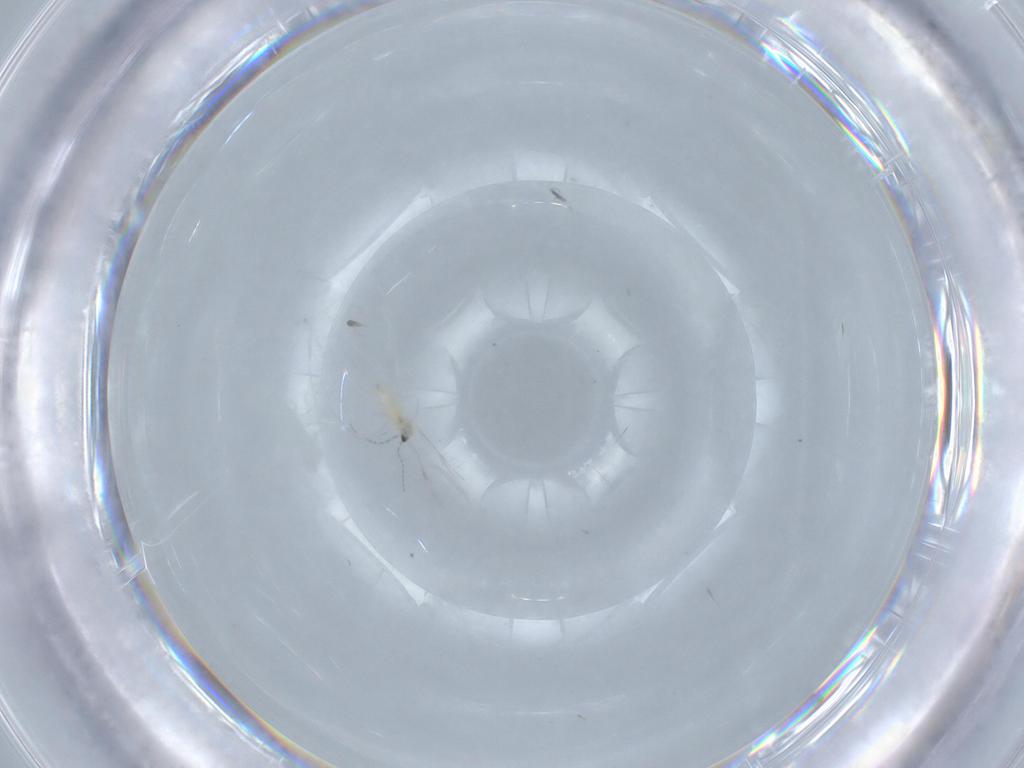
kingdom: Animalia
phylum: Arthropoda
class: Insecta
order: Diptera
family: Cecidomyiidae
